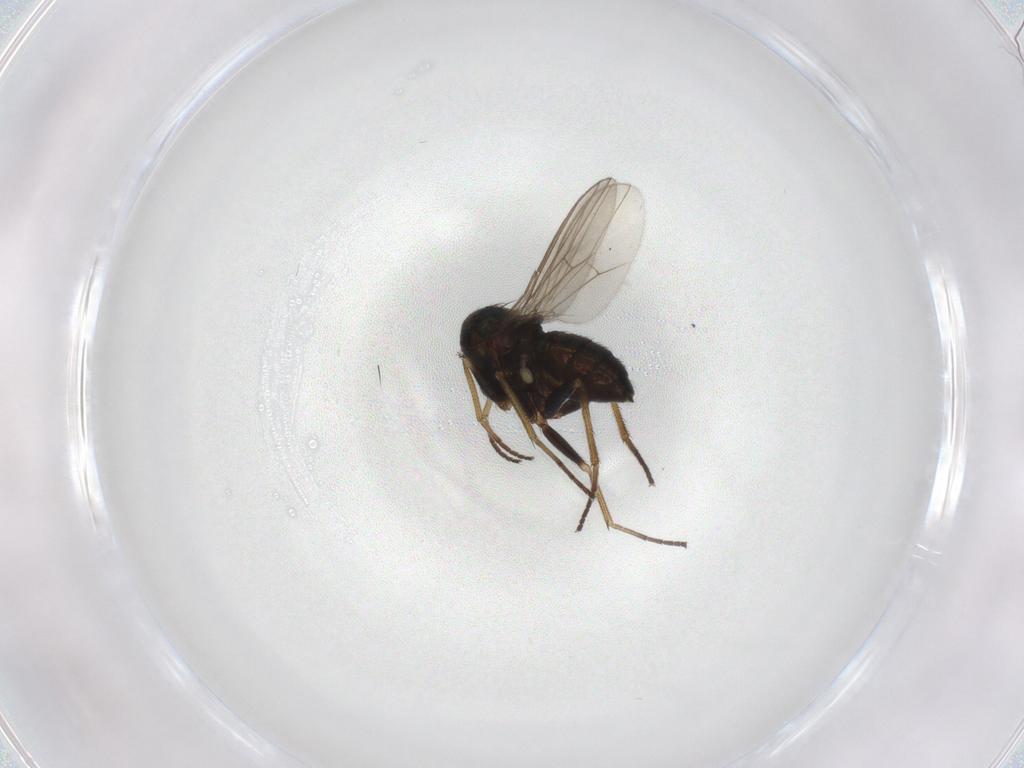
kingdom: Animalia
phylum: Arthropoda
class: Insecta
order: Diptera
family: Dolichopodidae
